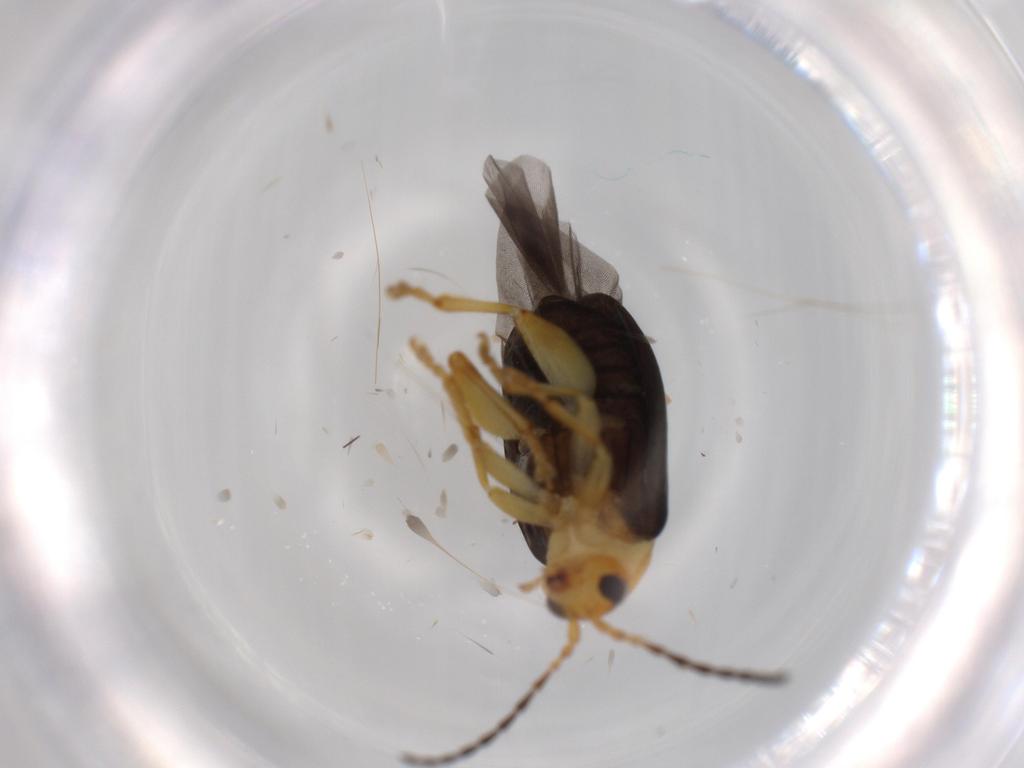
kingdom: Animalia
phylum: Arthropoda
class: Insecta
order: Coleoptera
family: Chrysomelidae
